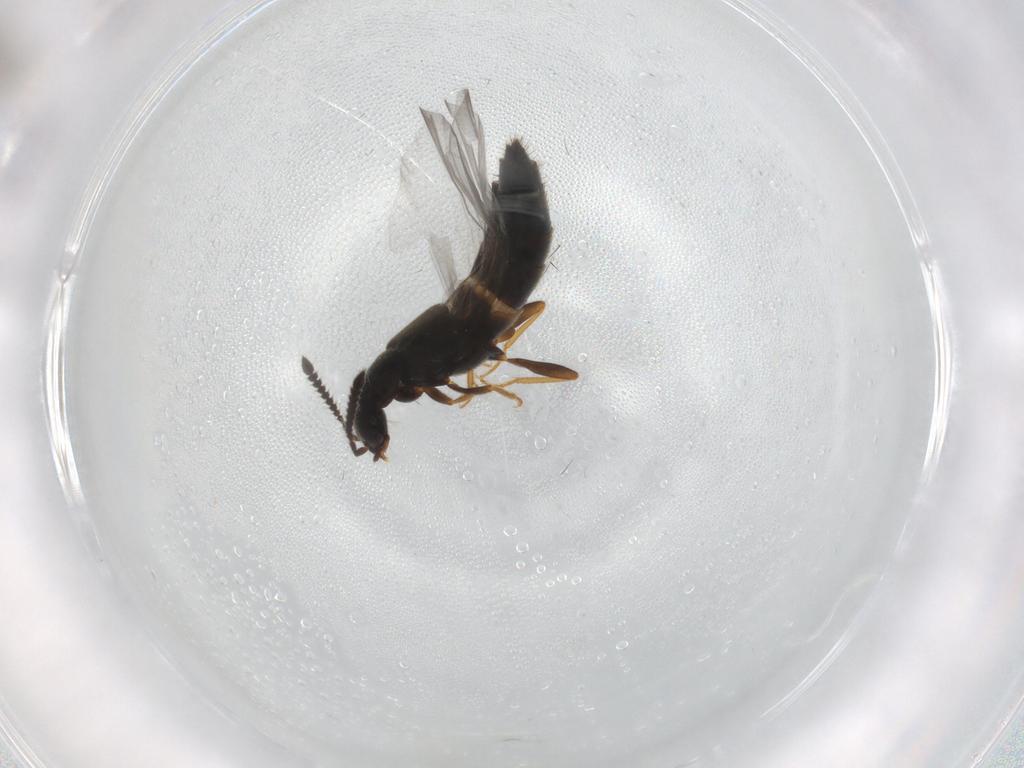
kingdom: Animalia
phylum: Arthropoda
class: Insecta
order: Coleoptera
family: Staphylinidae
